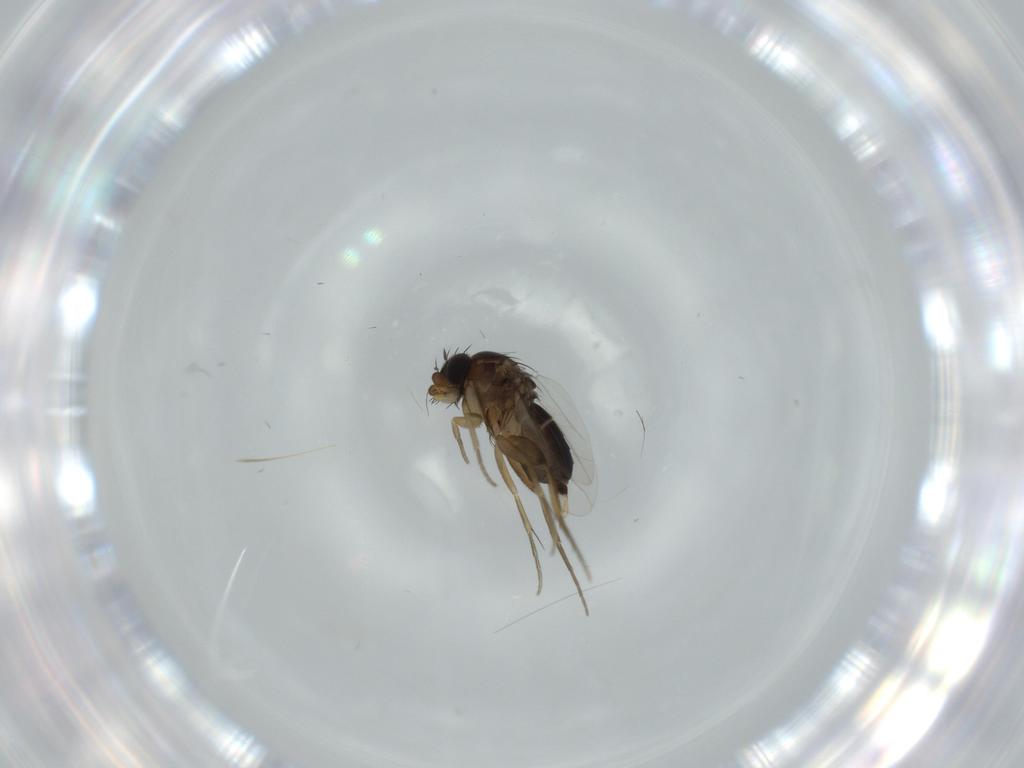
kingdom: Animalia
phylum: Arthropoda
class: Insecta
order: Diptera
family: Phoridae
